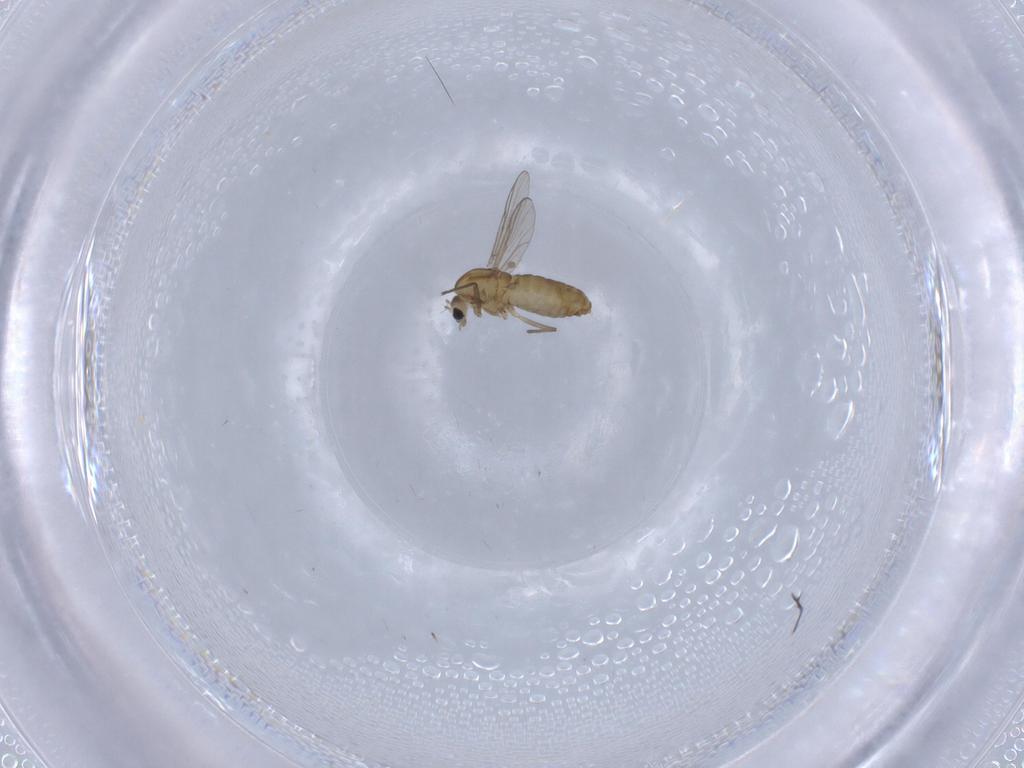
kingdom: Animalia
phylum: Arthropoda
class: Insecta
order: Diptera
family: Chironomidae
